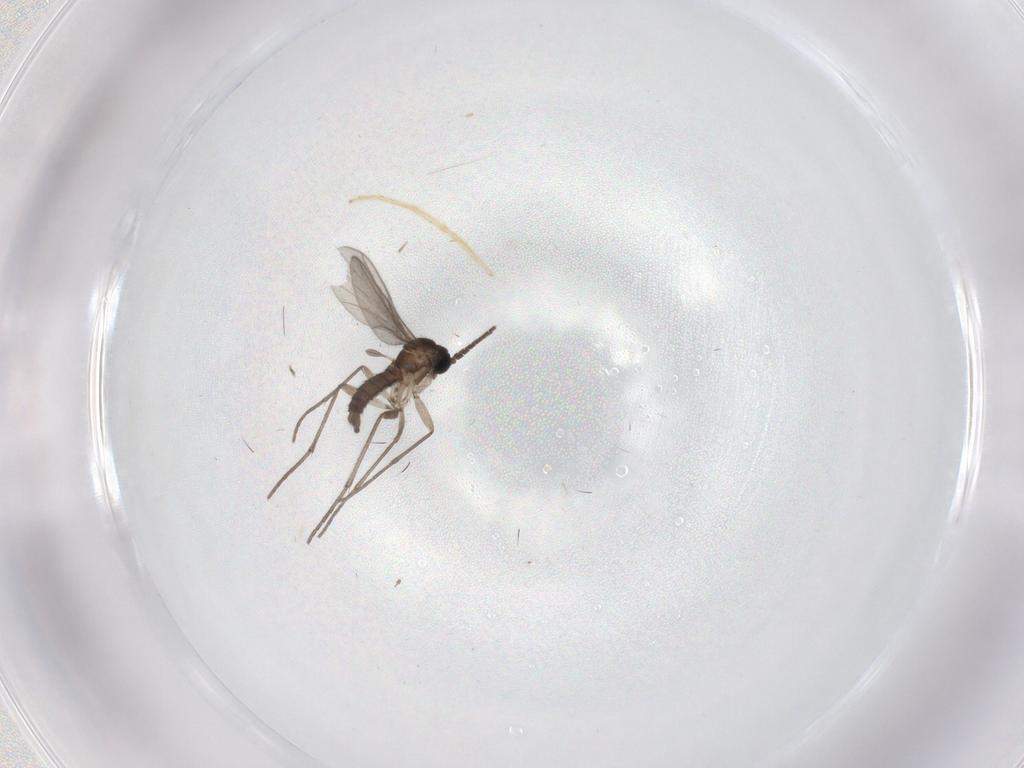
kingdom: Animalia
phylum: Arthropoda
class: Insecta
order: Diptera
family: Chironomidae
